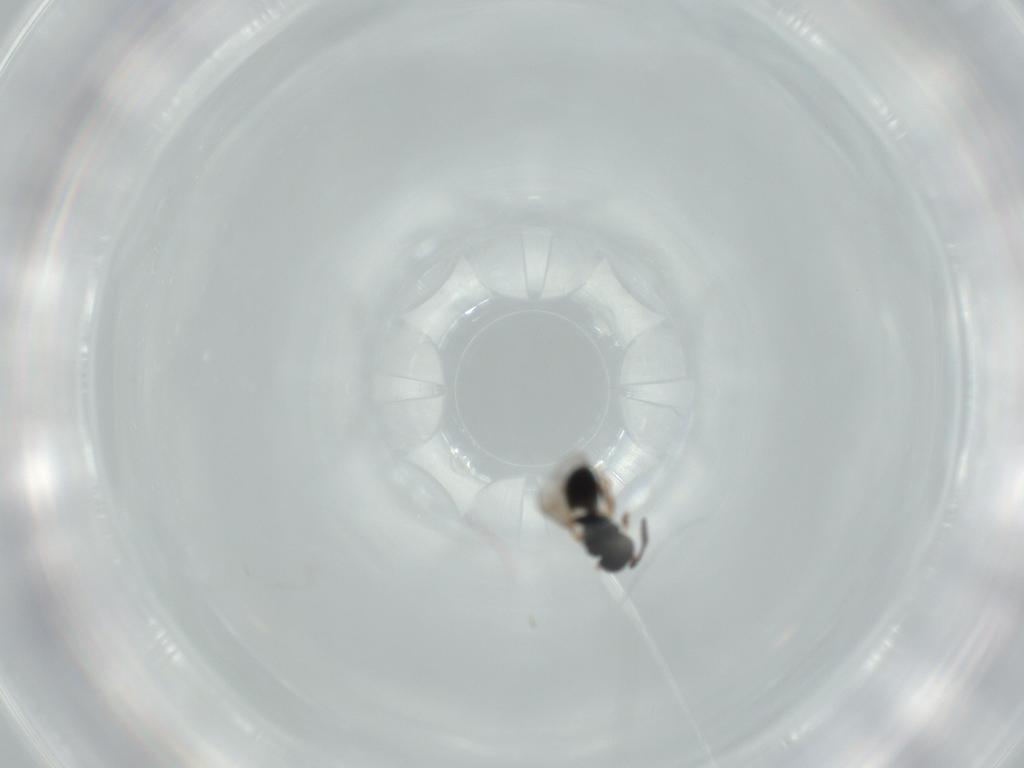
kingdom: Animalia
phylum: Arthropoda
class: Insecta
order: Hymenoptera
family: Scelionidae
